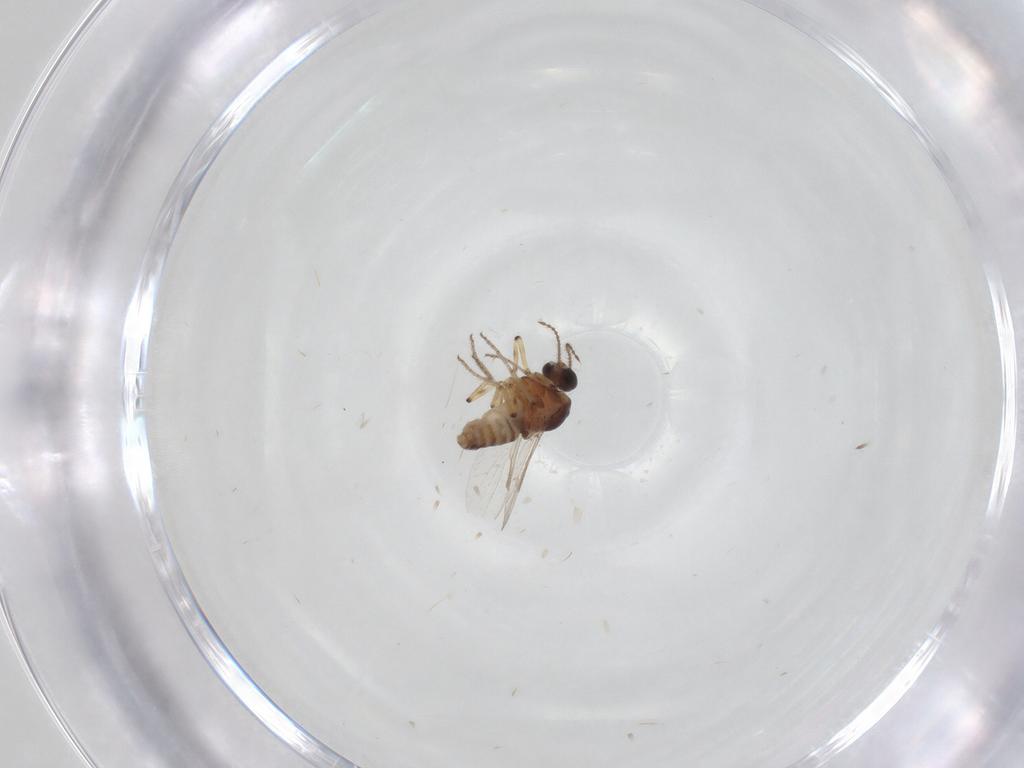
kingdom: Animalia
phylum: Arthropoda
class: Insecta
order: Diptera
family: Ceratopogonidae
